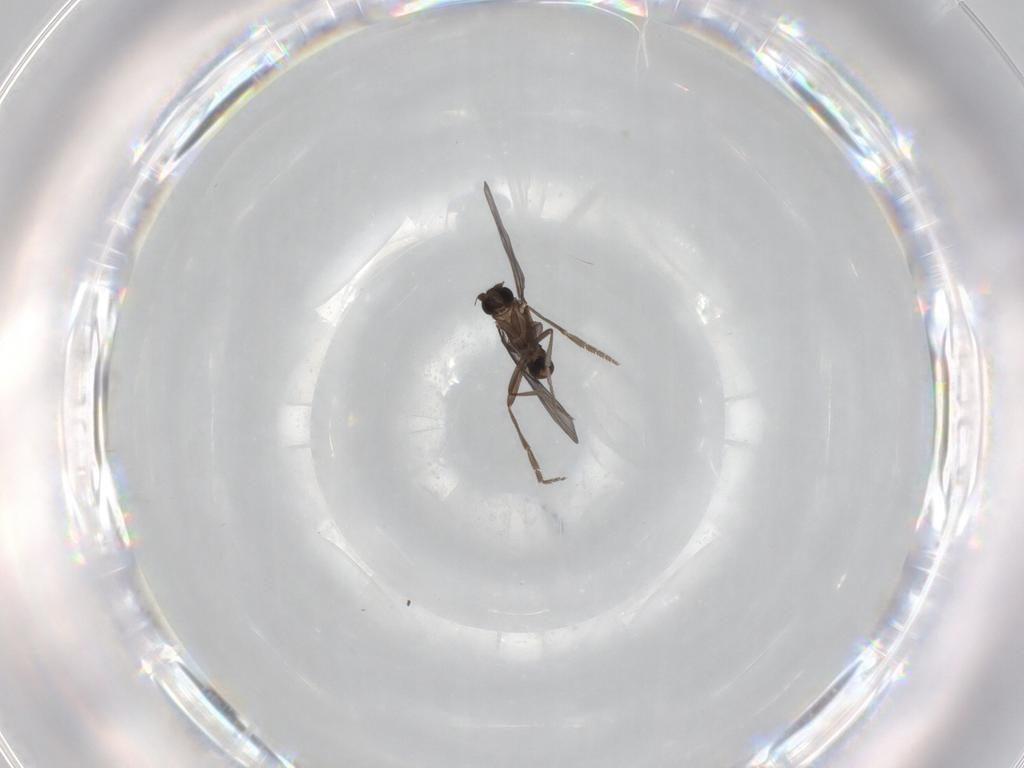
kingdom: Animalia
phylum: Arthropoda
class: Insecta
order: Diptera
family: Phoridae
